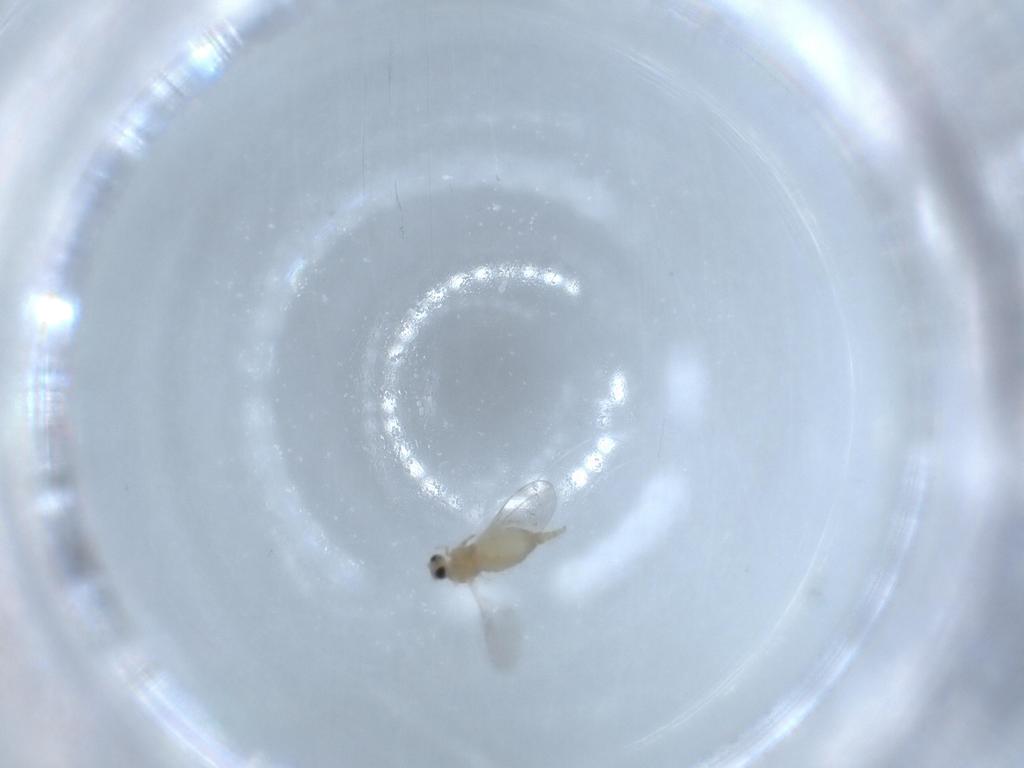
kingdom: Animalia
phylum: Arthropoda
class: Insecta
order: Diptera
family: Cecidomyiidae
